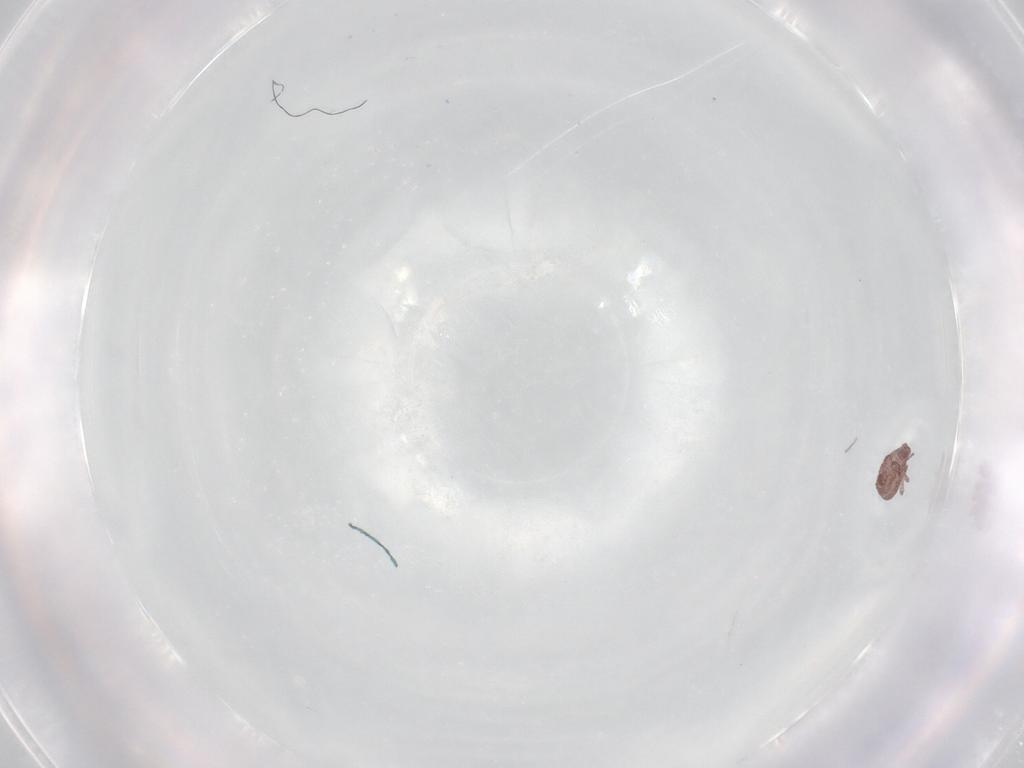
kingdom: Animalia
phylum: Arthropoda
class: Arachnida
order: Sarcoptiformes
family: Alycidae
